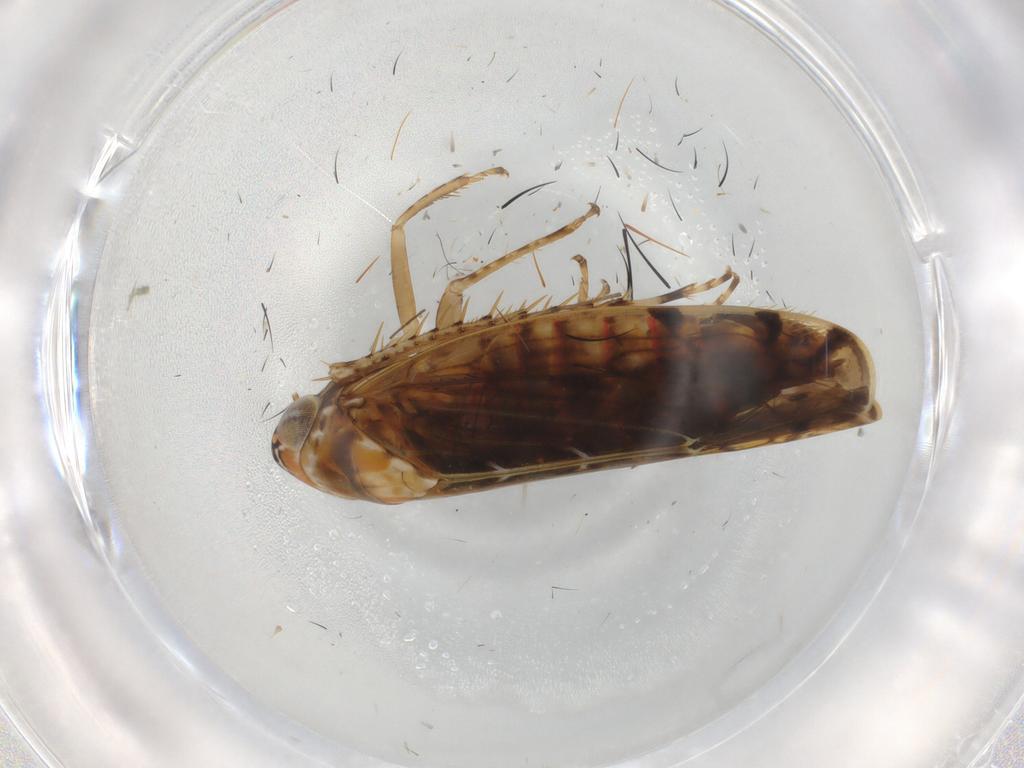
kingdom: Animalia
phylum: Arthropoda
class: Insecta
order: Hemiptera
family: Cicadellidae
